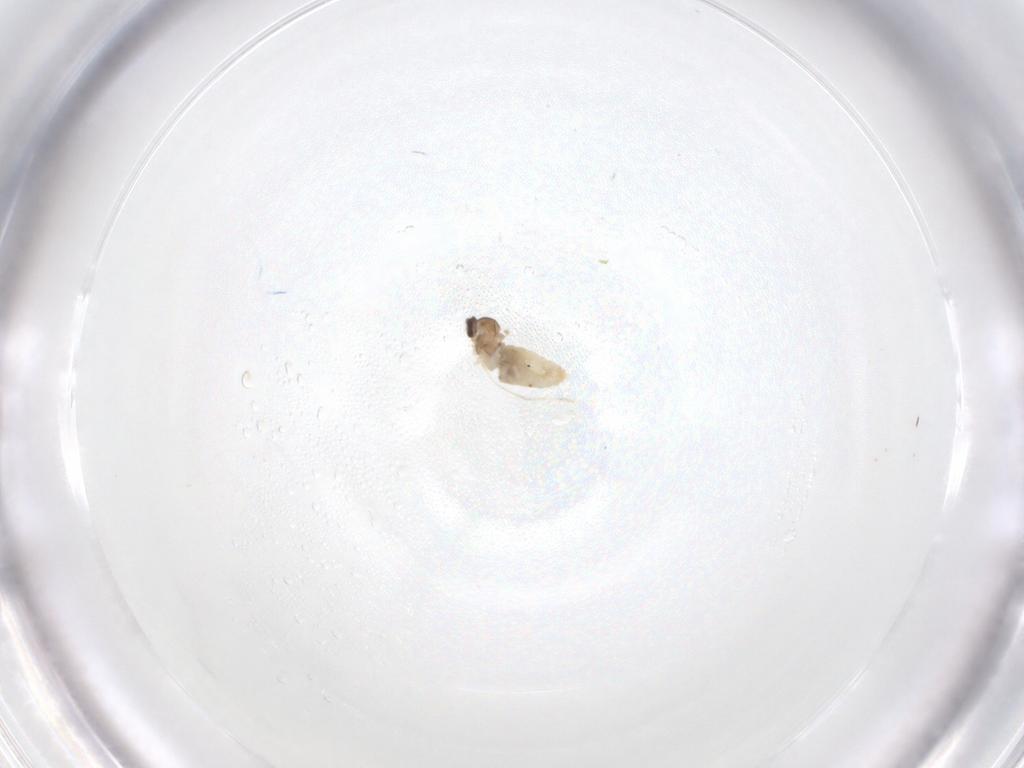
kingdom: Animalia
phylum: Arthropoda
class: Insecta
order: Diptera
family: Cecidomyiidae
